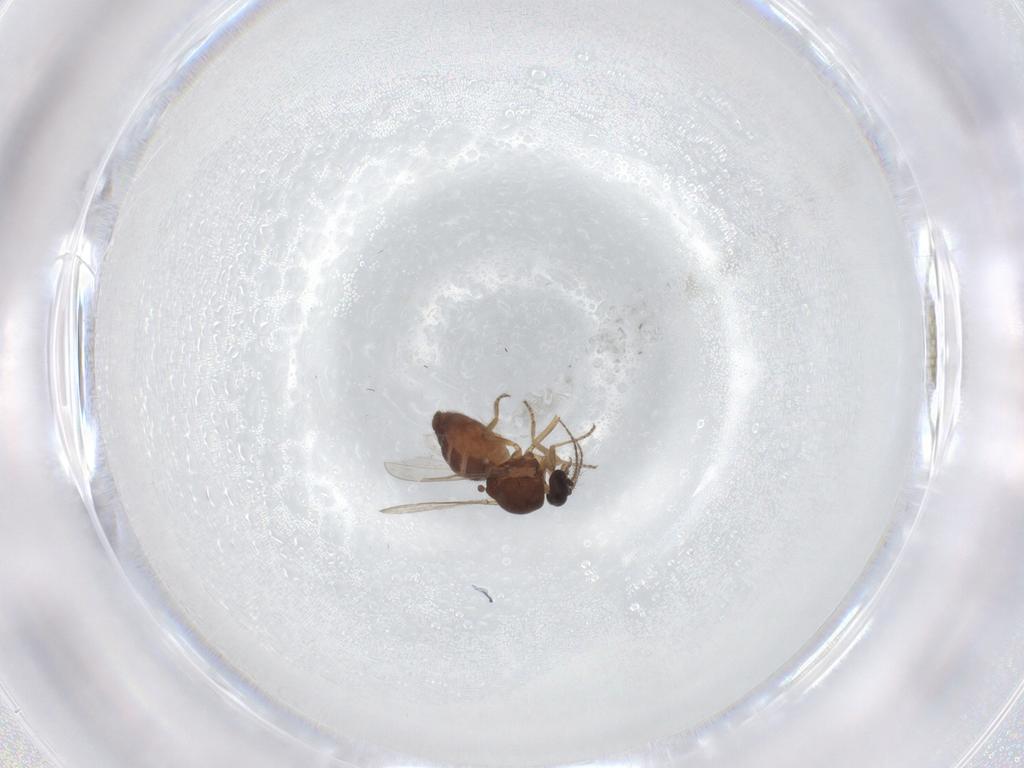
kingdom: Animalia
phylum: Arthropoda
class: Insecta
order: Diptera
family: Ceratopogonidae
